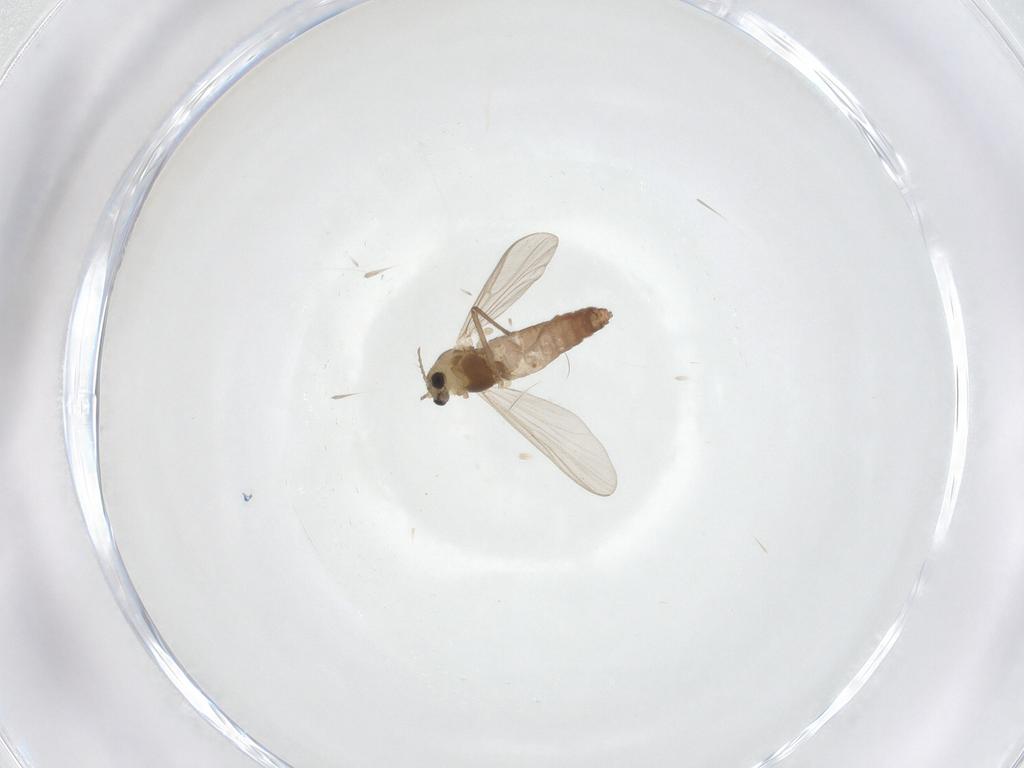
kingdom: Animalia
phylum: Arthropoda
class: Insecta
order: Diptera
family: Chironomidae
